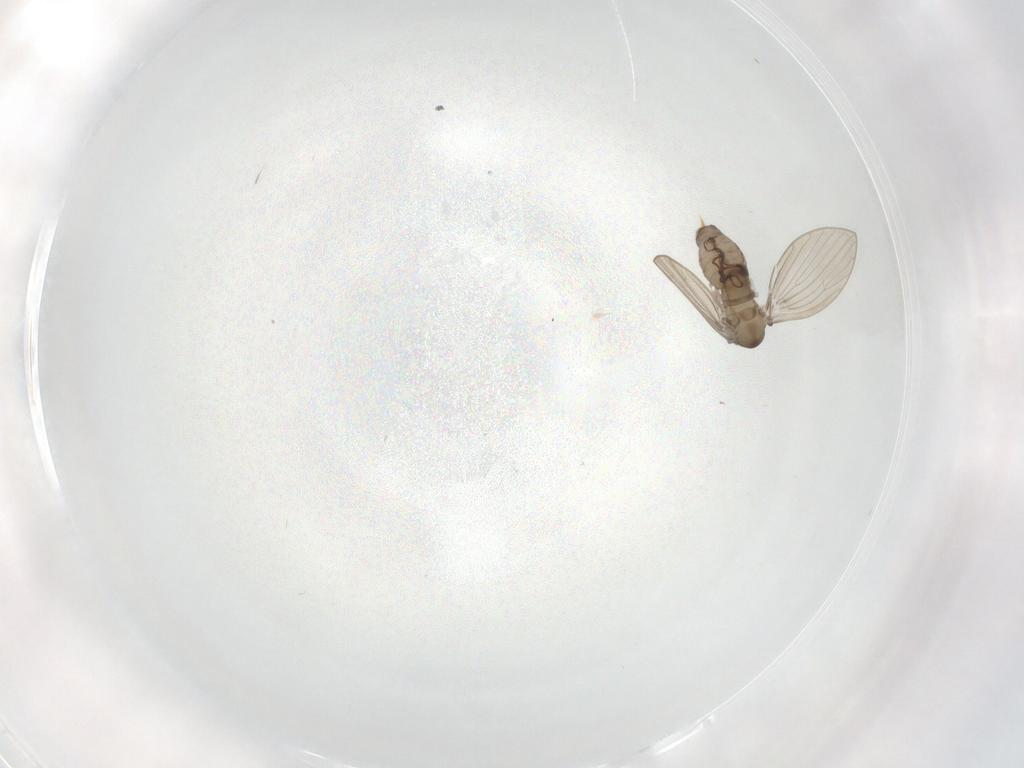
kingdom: Animalia
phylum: Arthropoda
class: Insecta
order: Diptera
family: Psychodidae
